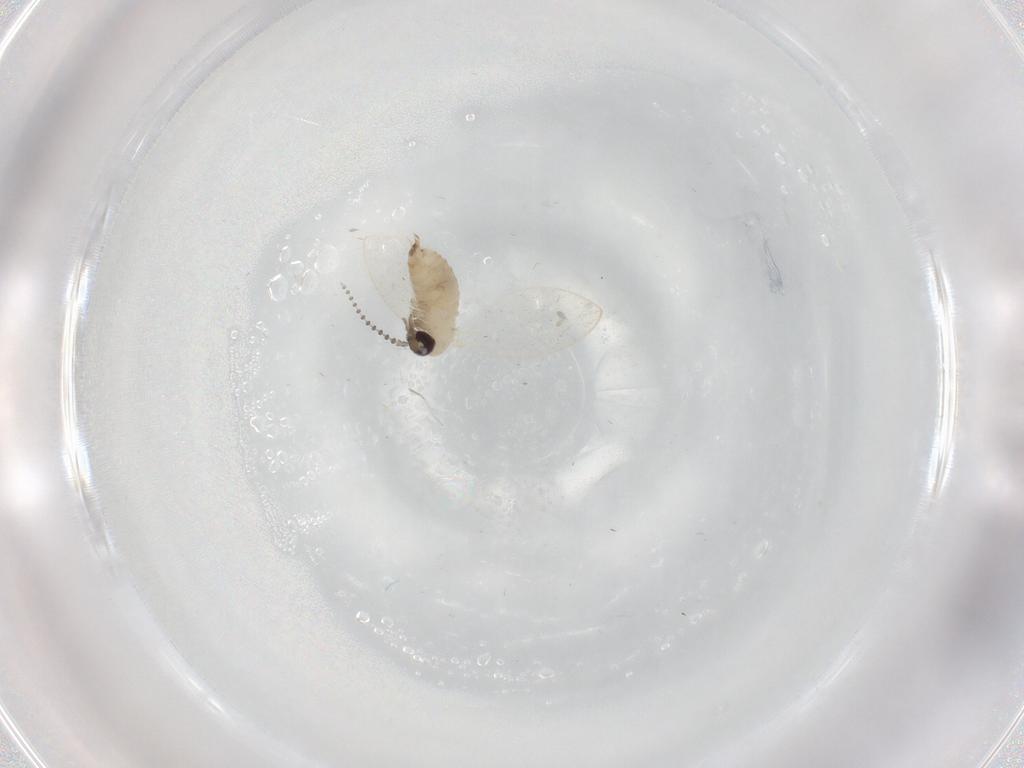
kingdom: Animalia
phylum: Arthropoda
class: Insecta
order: Diptera
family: Psychodidae
